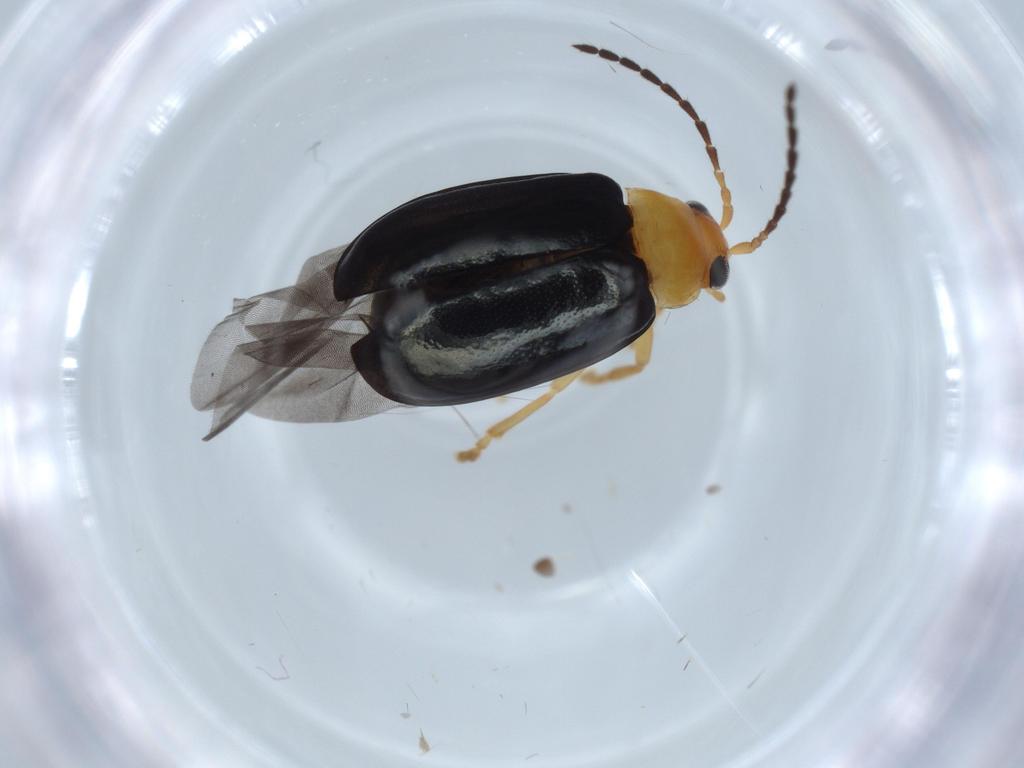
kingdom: Animalia
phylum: Arthropoda
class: Insecta
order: Coleoptera
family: Chrysomelidae
